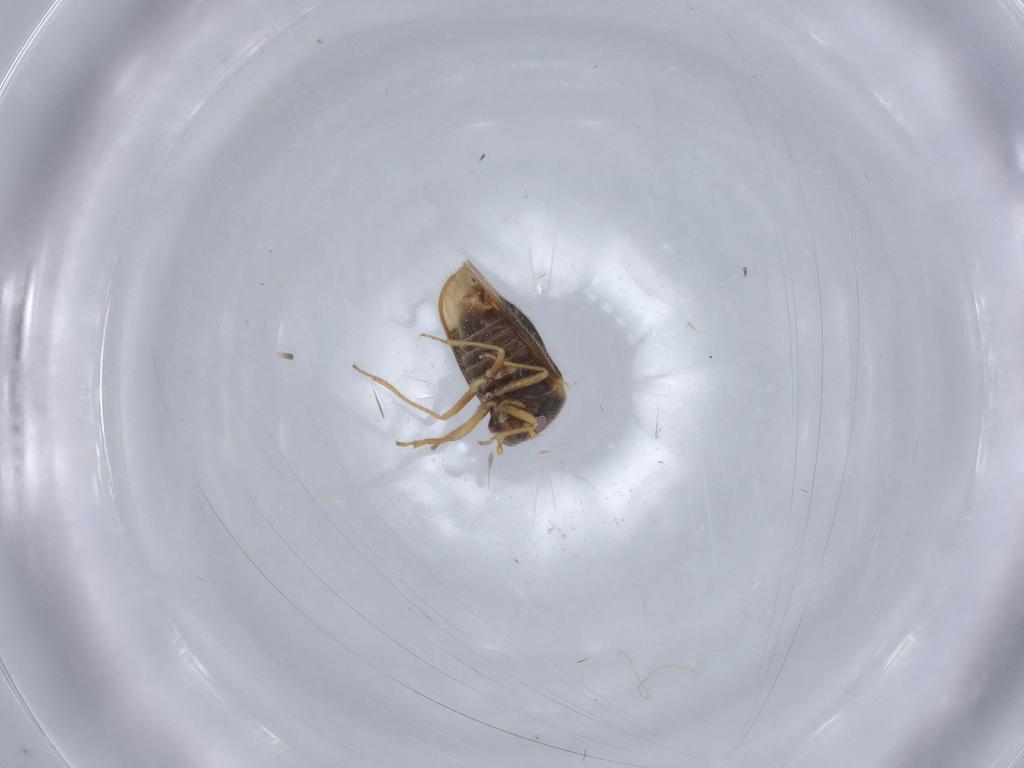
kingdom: Animalia
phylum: Arthropoda
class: Insecta
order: Hemiptera
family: Schizopteridae
